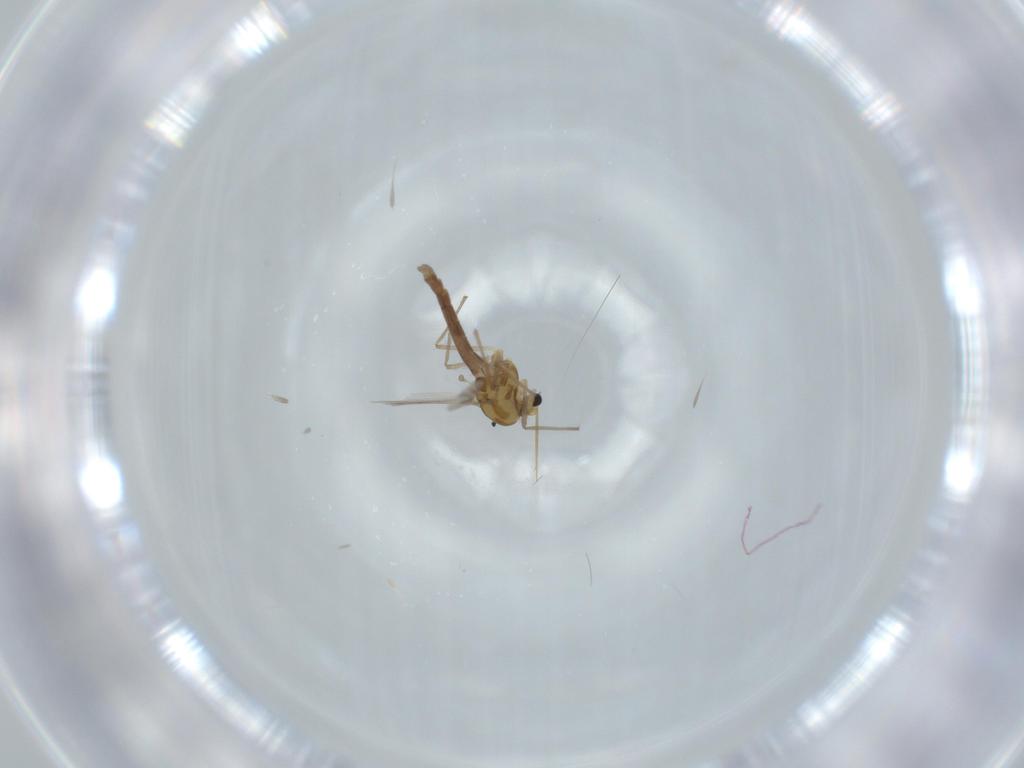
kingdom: Animalia
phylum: Arthropoda
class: Insecta
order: Diptera
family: Chironomidae
